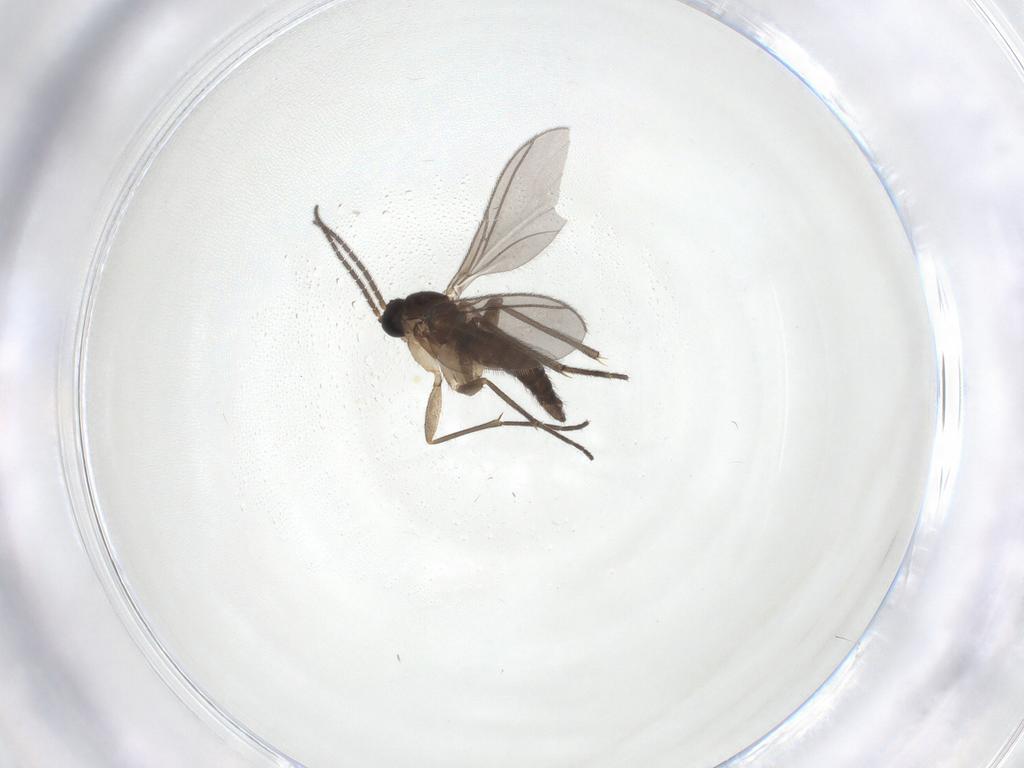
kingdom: Animalia
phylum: Arthropoda
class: Insecta
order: Diptera
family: Sciaridae
